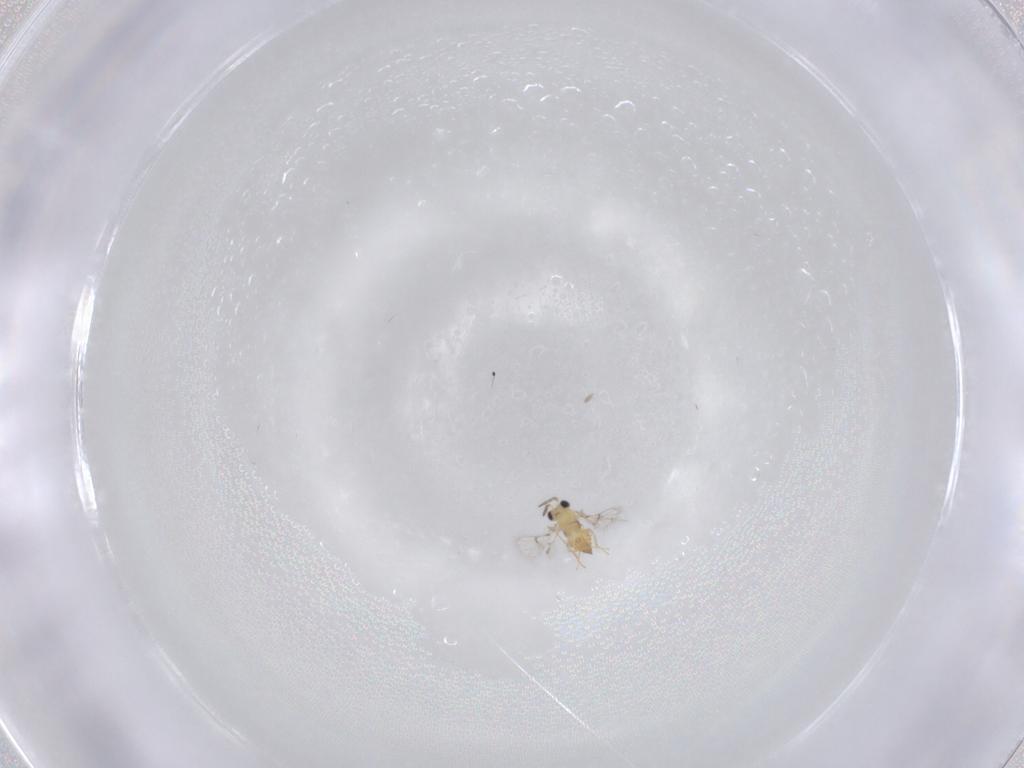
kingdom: Animalia
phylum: Arthropoda
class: Insecta
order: Hymenoptera
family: Trichogrammatidae
